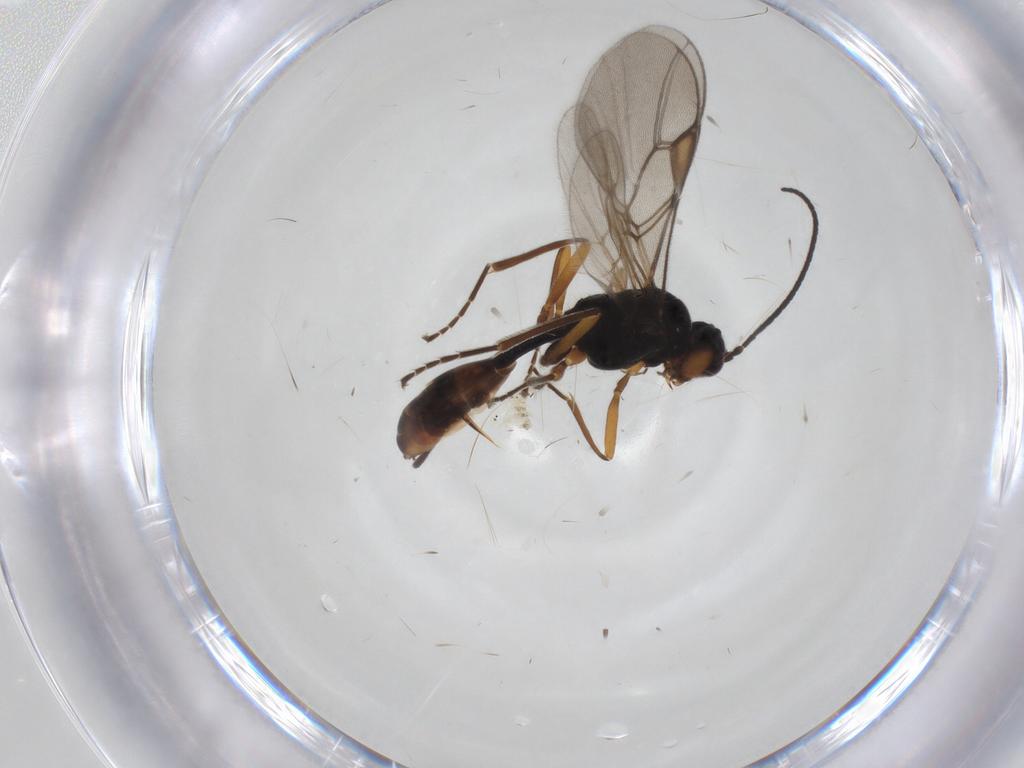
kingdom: Animalia
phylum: Arthropoda
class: Insecta
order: Hymenoptera
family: Braconidae
